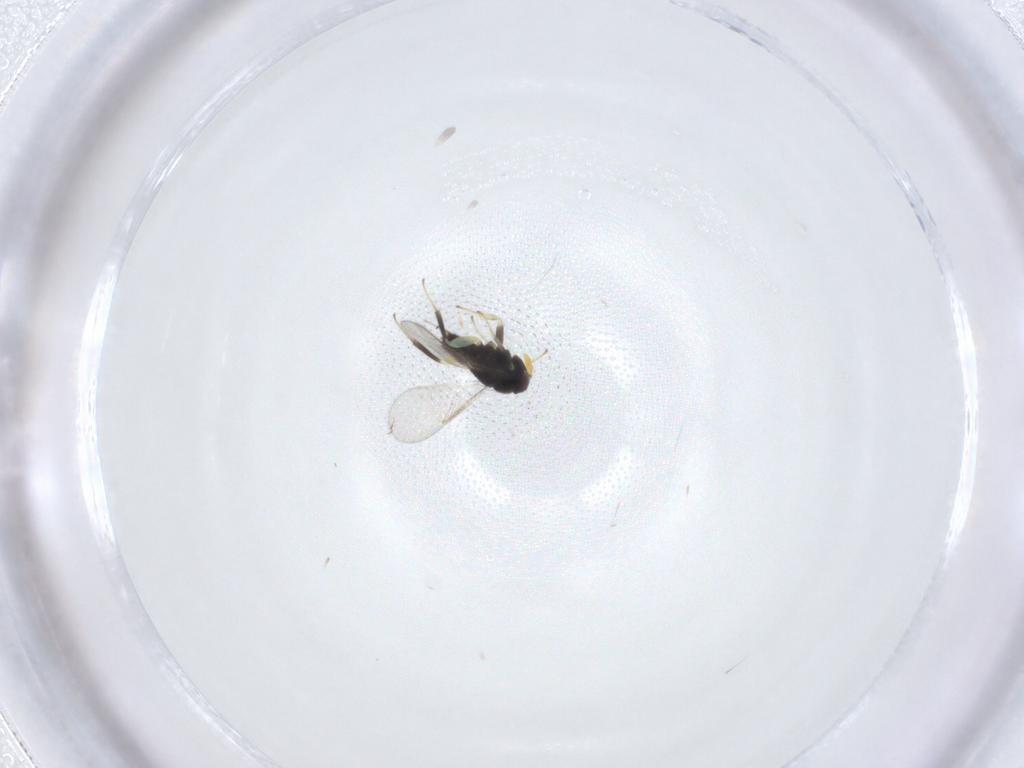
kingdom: Animalia
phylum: Arthropoda
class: Insecta
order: Hymenoptera
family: Aphelinidae
